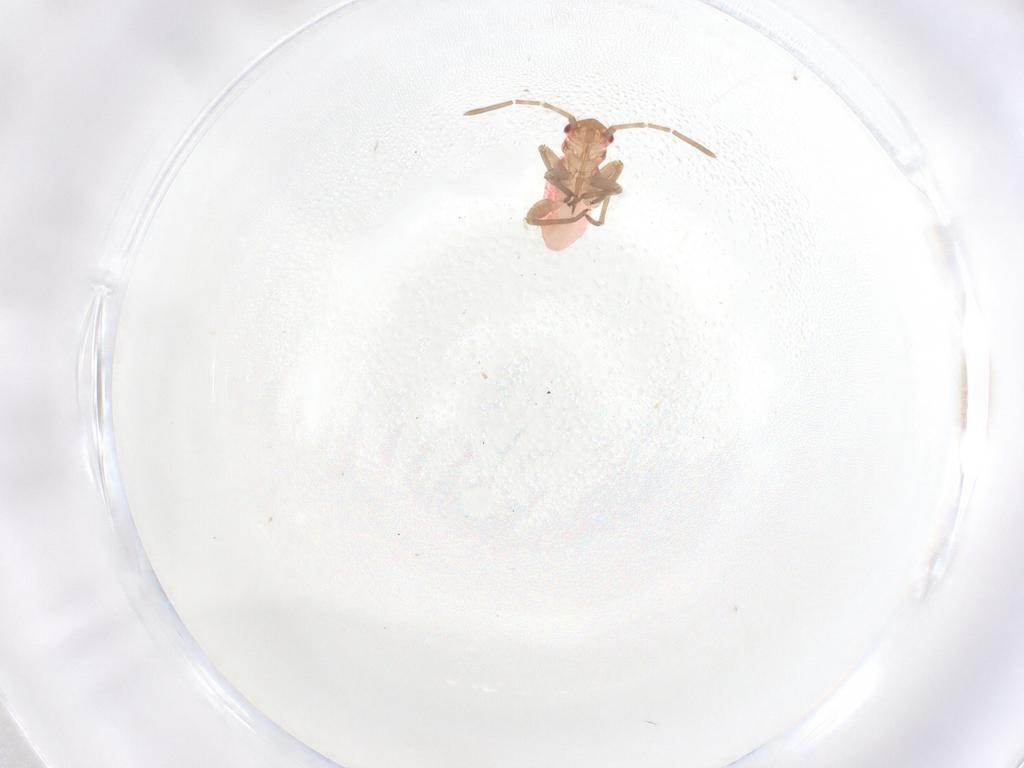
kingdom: Animalia
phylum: Arthropoda
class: Insecta
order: Hemiptera
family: Miridae
